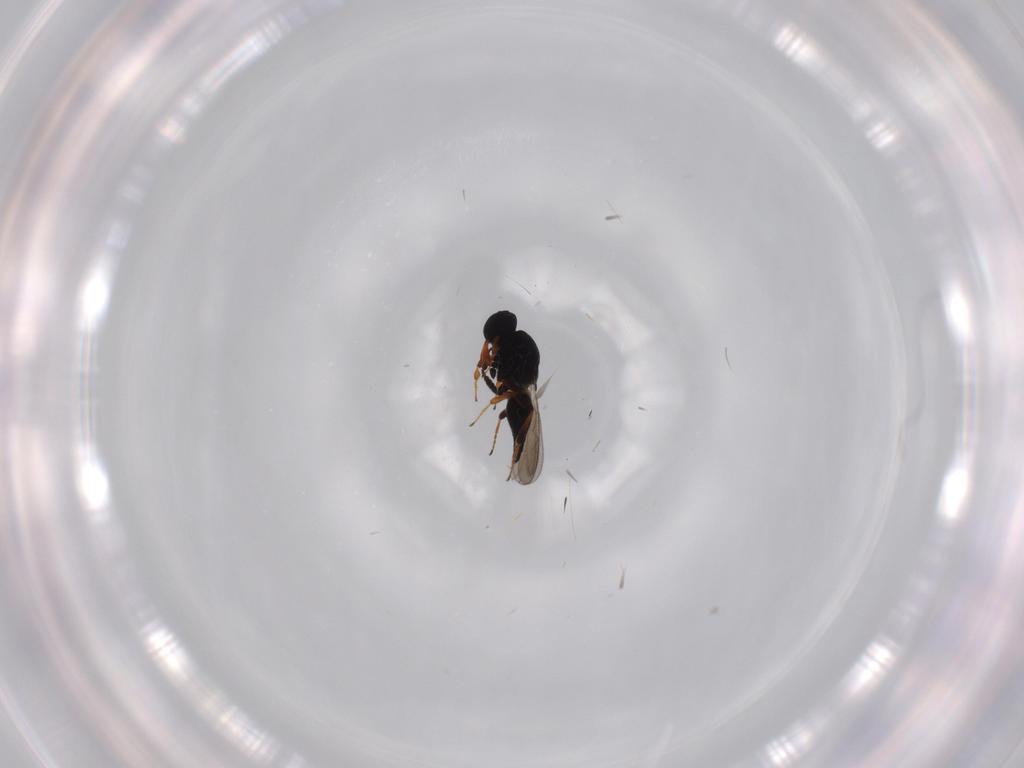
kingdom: Animalia
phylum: Arthropoda
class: Insecta
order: Hymenoptera
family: Platygastridae
